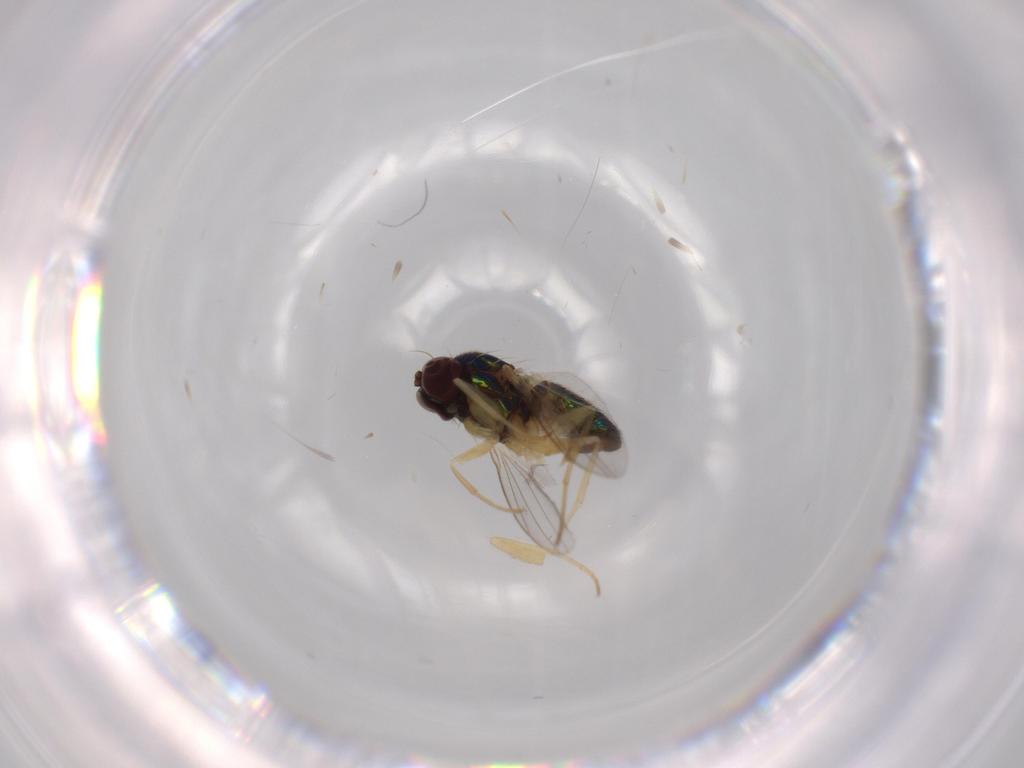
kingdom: Animalia
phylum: Arthropoda
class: Insecta
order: Diptera
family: Dolichopodidae
